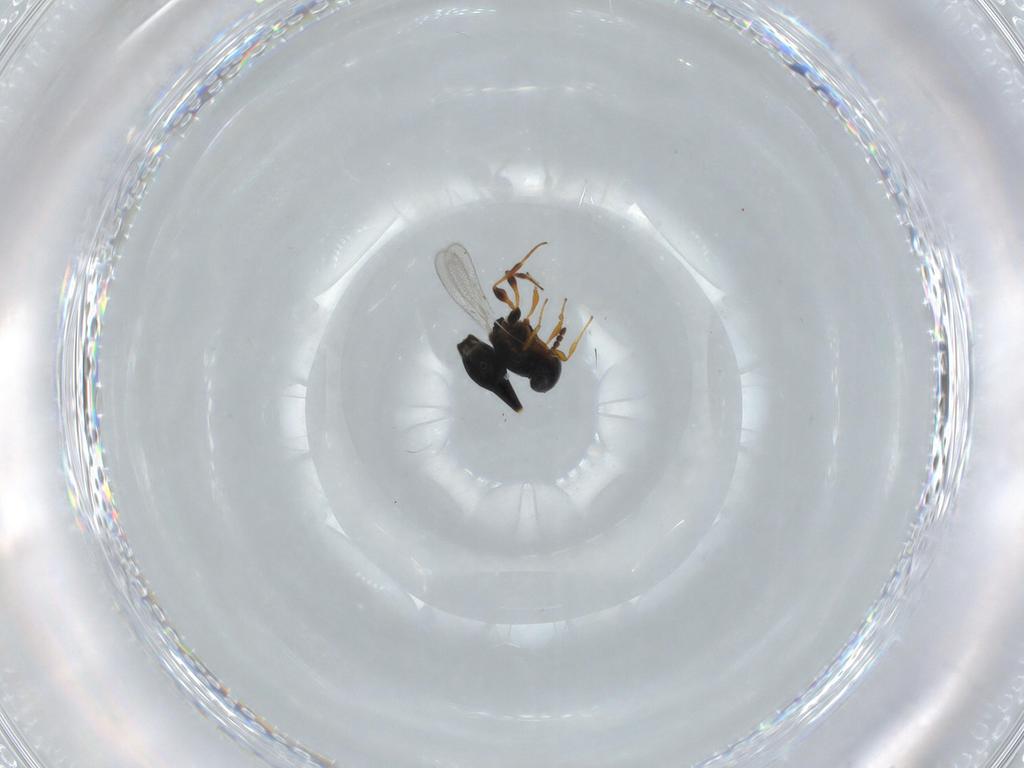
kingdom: Animalia
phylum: Arthropoda
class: Insecta
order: Hymenoptera
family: Platygastridae
